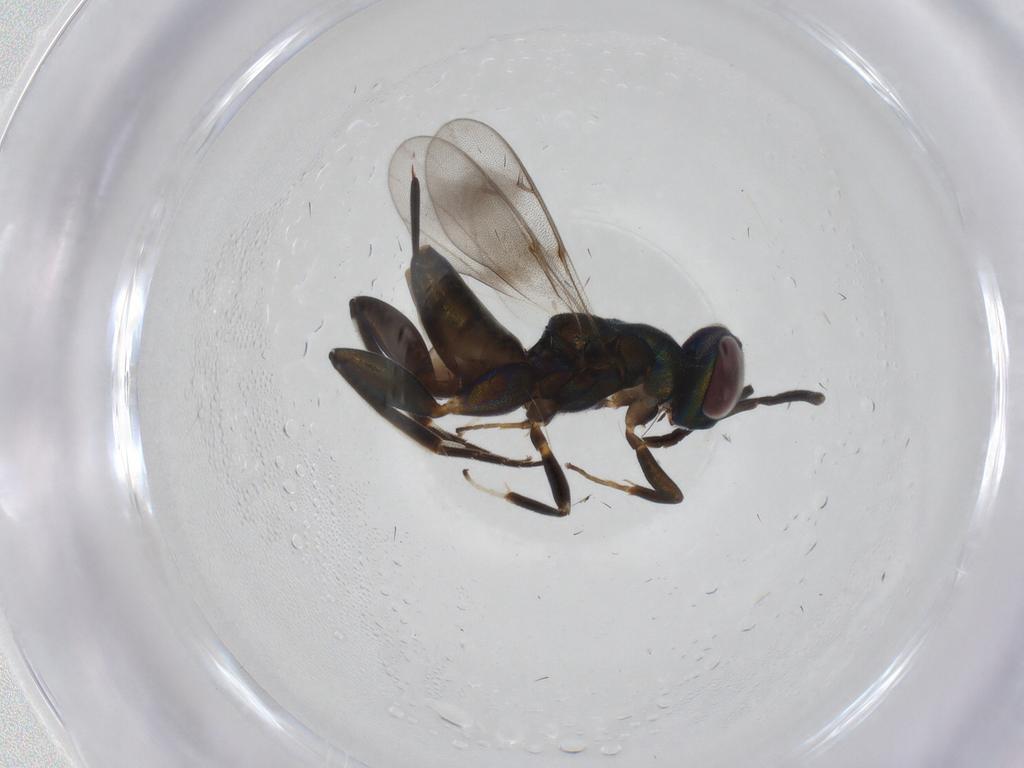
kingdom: Animalia
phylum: Arthropoda
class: Insecta
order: Hymenoptera
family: Eupelmidae
